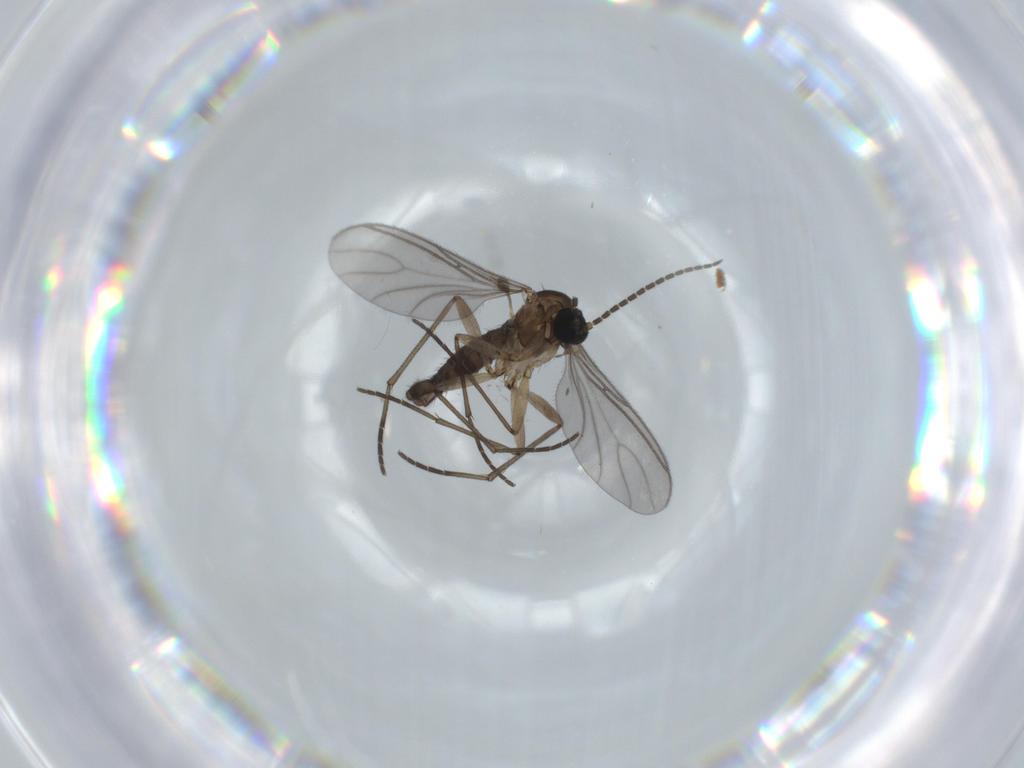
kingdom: Animalia
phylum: Arthropoda
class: Insecta
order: Diptera
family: Sciaridae
